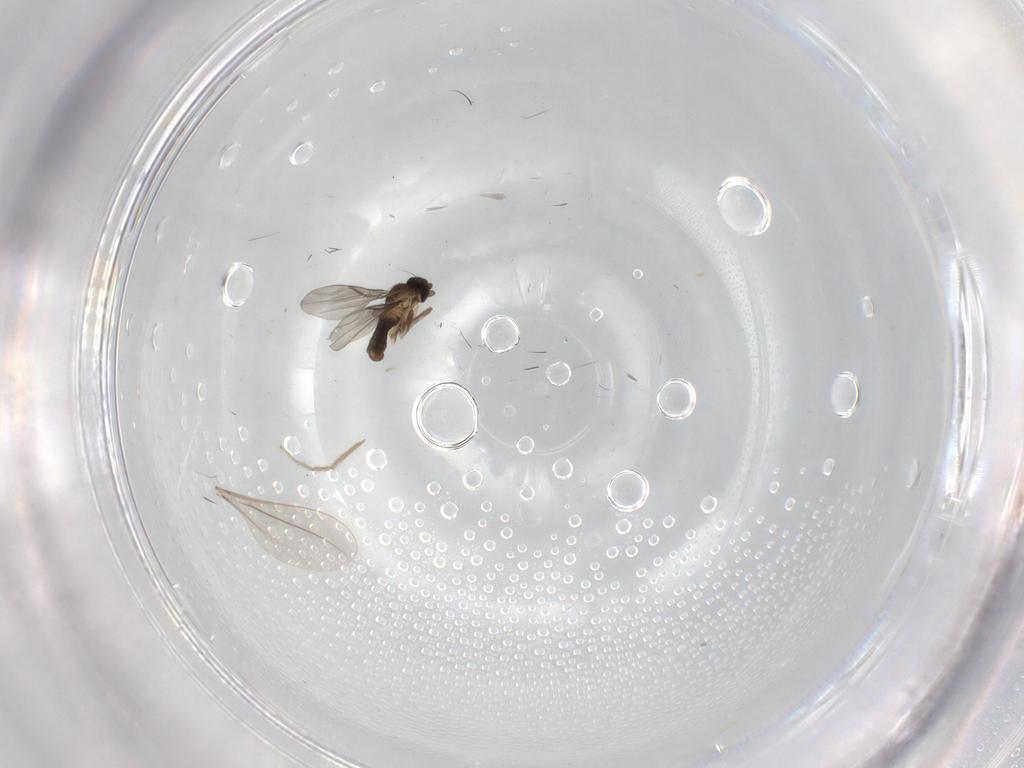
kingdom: Animalia
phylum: Arthropoda
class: Insecta
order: Diptera
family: Cecidomyiidae
